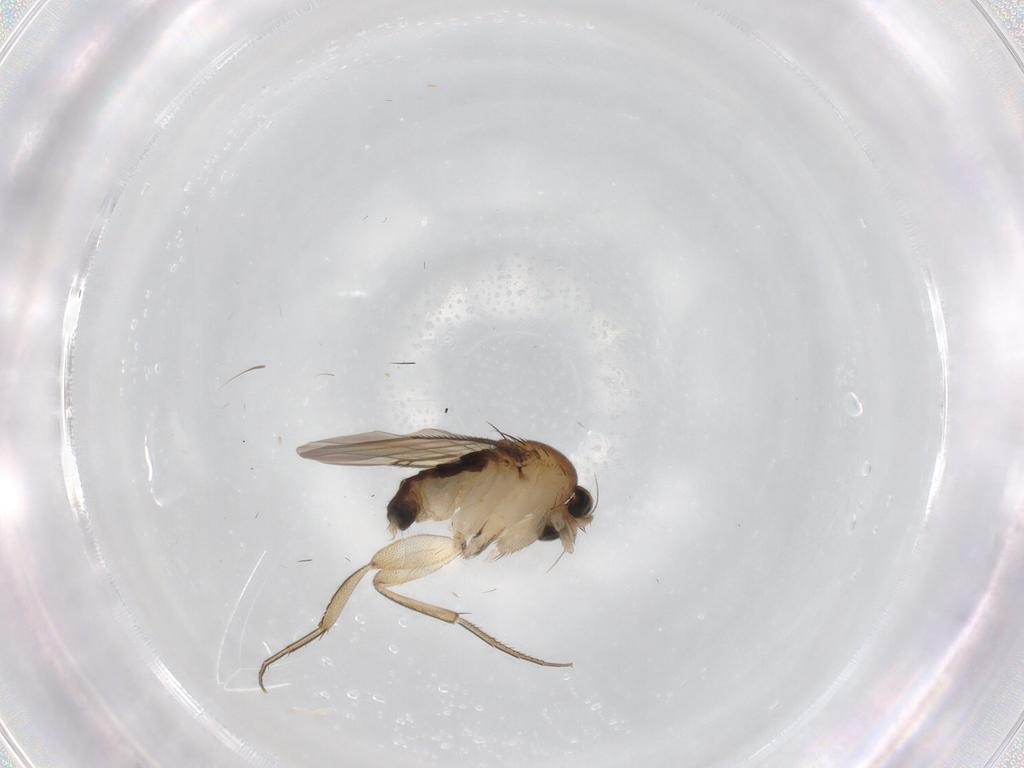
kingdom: Animalia
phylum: Arthropoda
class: Insecta
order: Diptera
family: Phoridae
